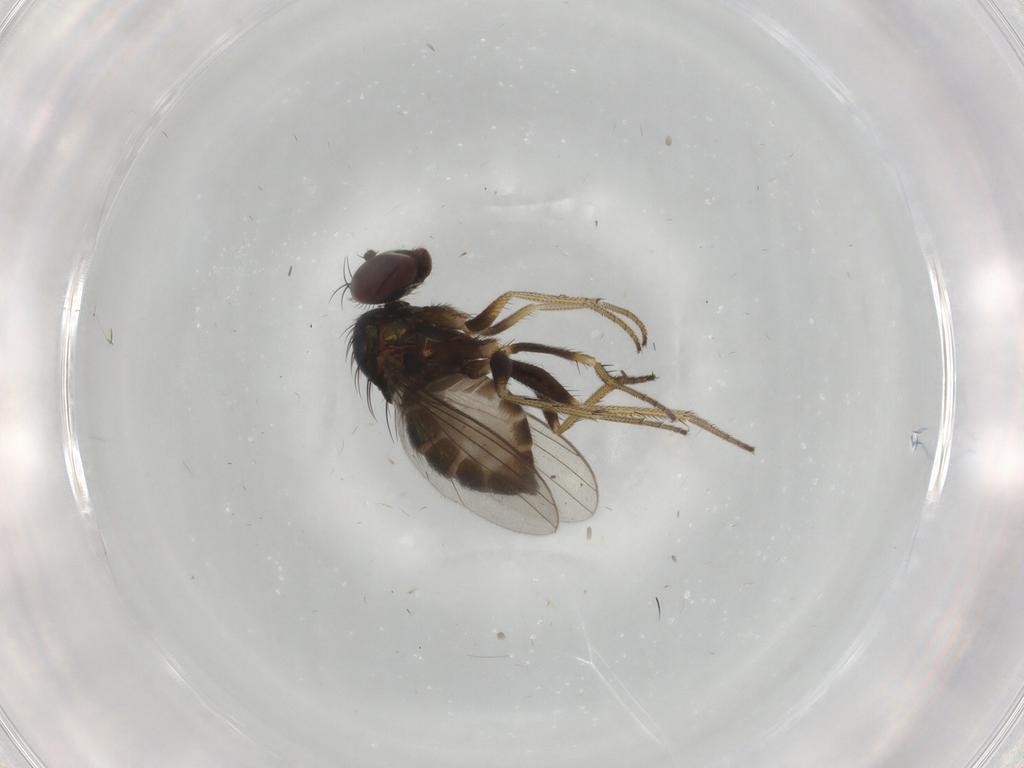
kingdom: Animalia
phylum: Arthropoda
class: Insecta
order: Diptera
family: Dolichopodidae
